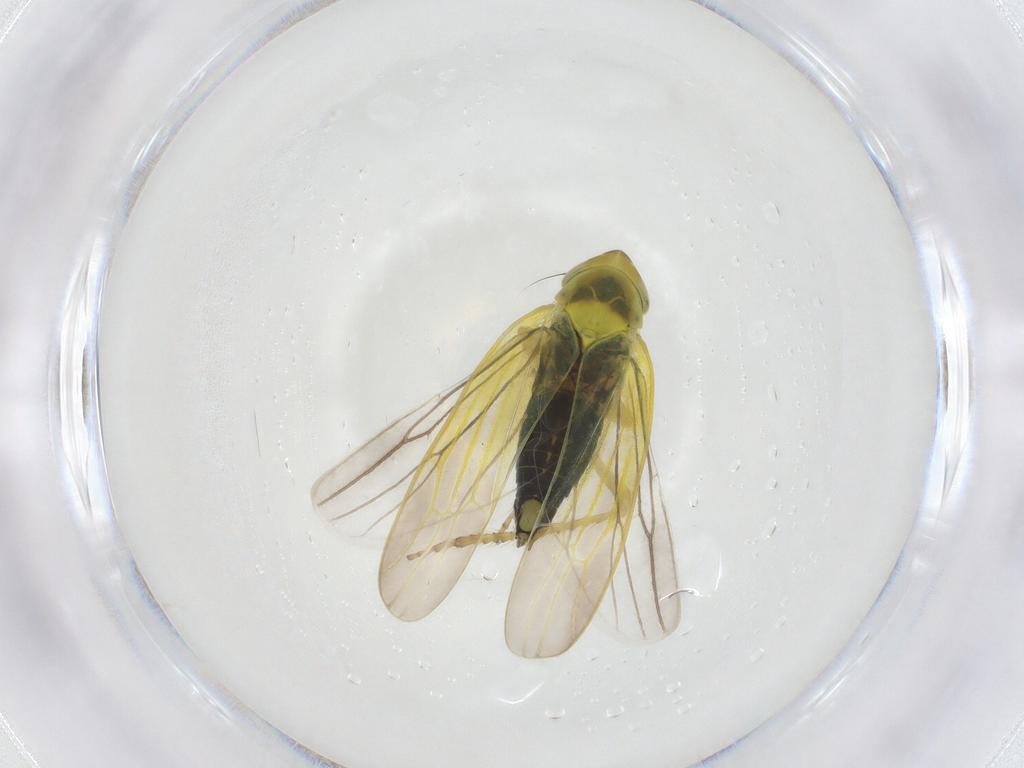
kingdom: Animalia
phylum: Arthropoda
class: Insecta
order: Hemiptera
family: Cicadellidae
